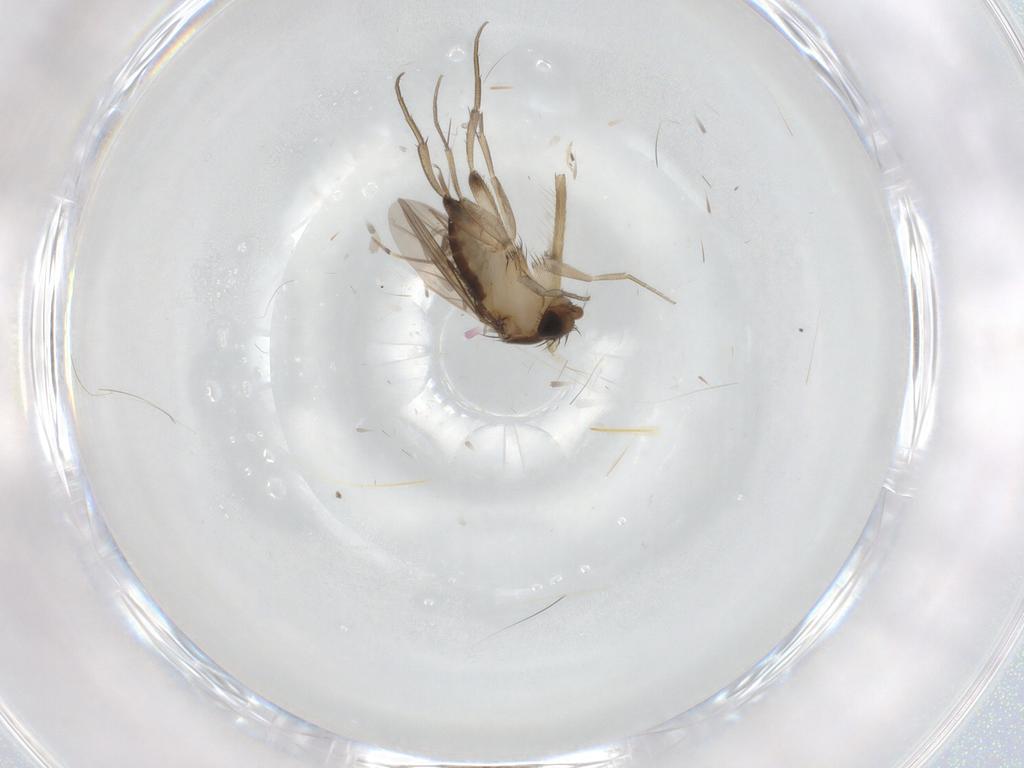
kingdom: Animalia
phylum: Arthropoda
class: Insecta
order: Diptera
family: Phoridae
